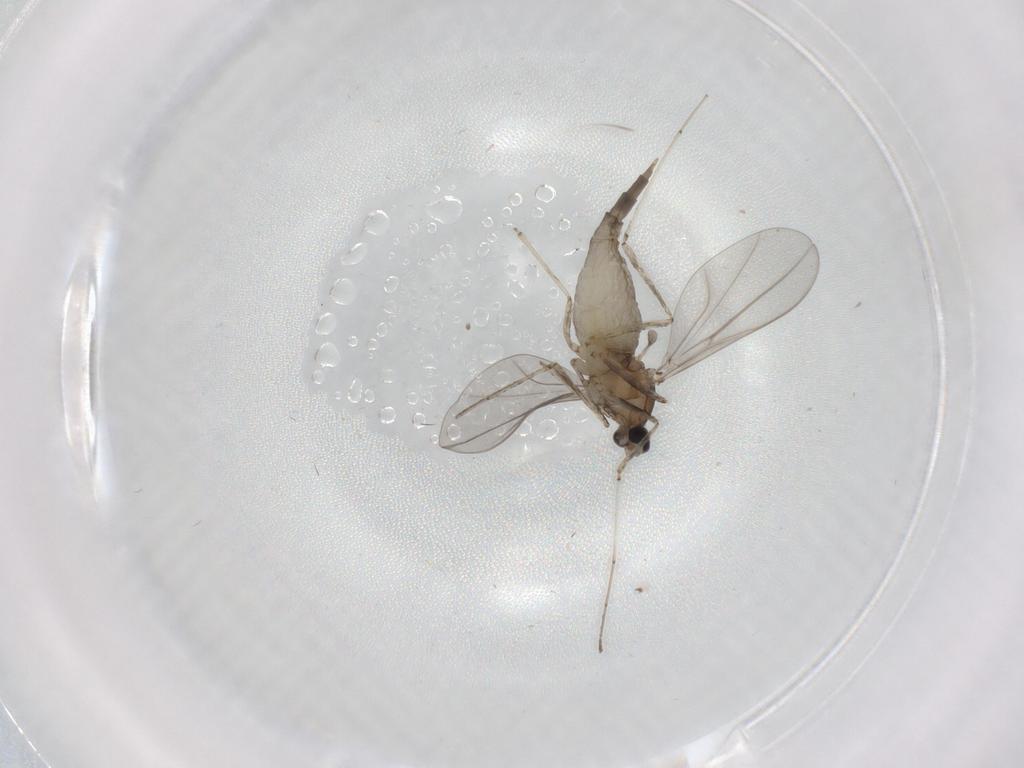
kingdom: Animalia
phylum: Arthropoda
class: Insecta
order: Diptera
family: Cecidomyiidae
